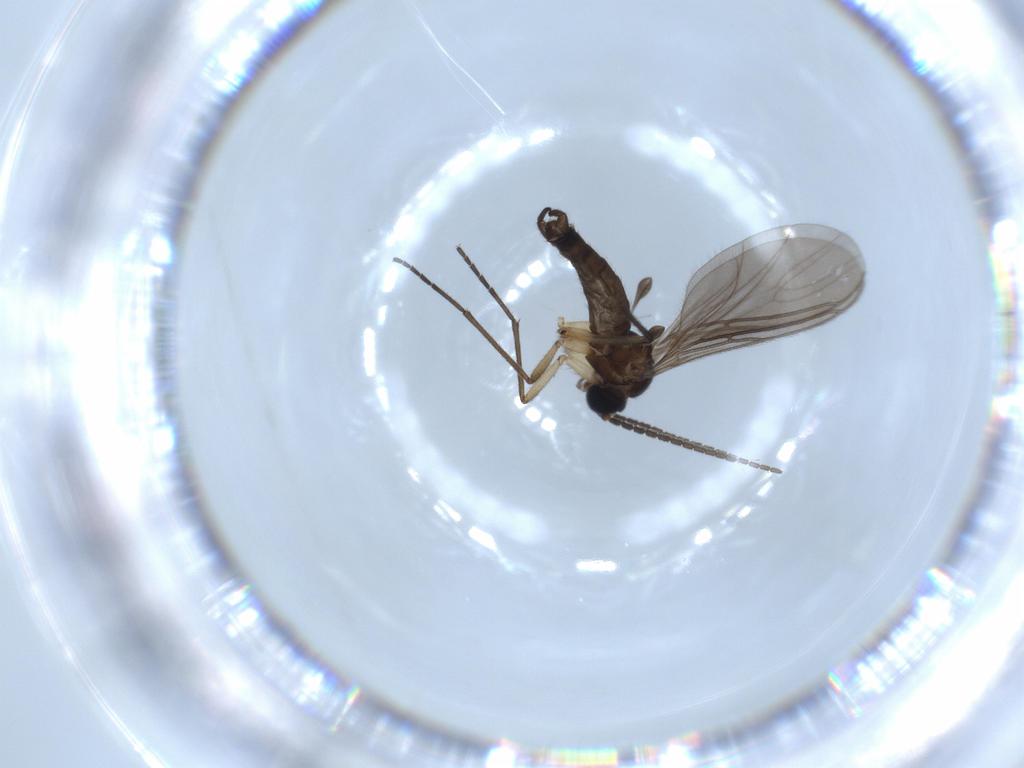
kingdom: Animalia
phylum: Arthropoda
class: Insecta
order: Diptera
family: Sciaridae
